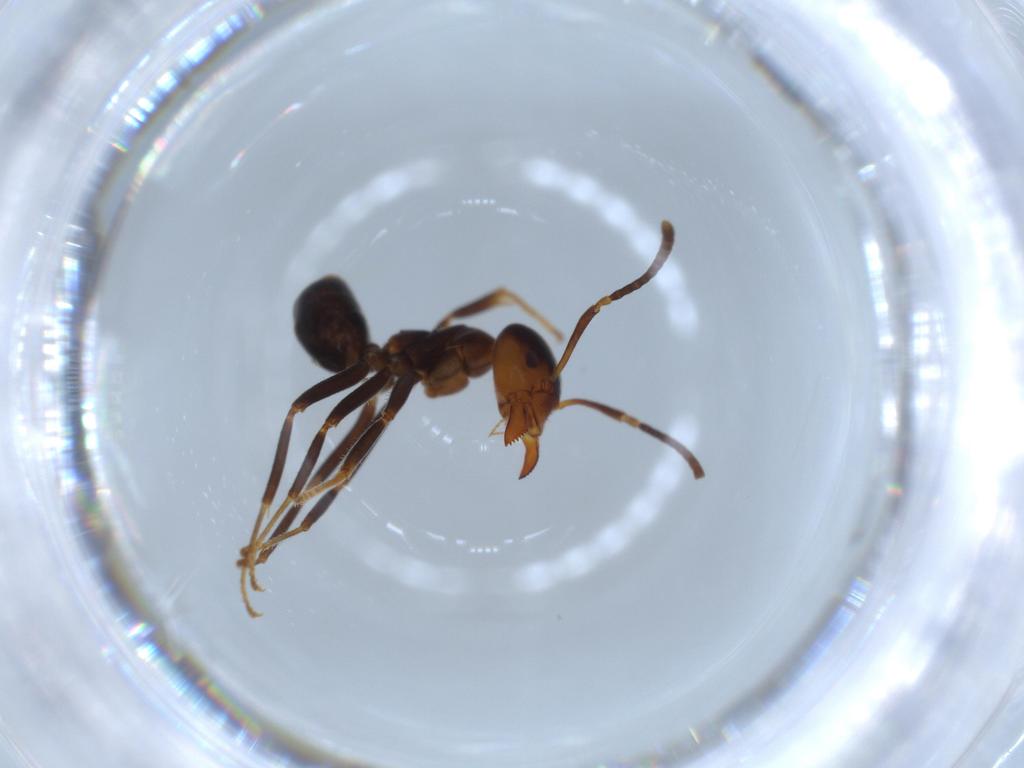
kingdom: Animalia
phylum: Arthropoda
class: Insecta
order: Hymenoptera
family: Formicidae
